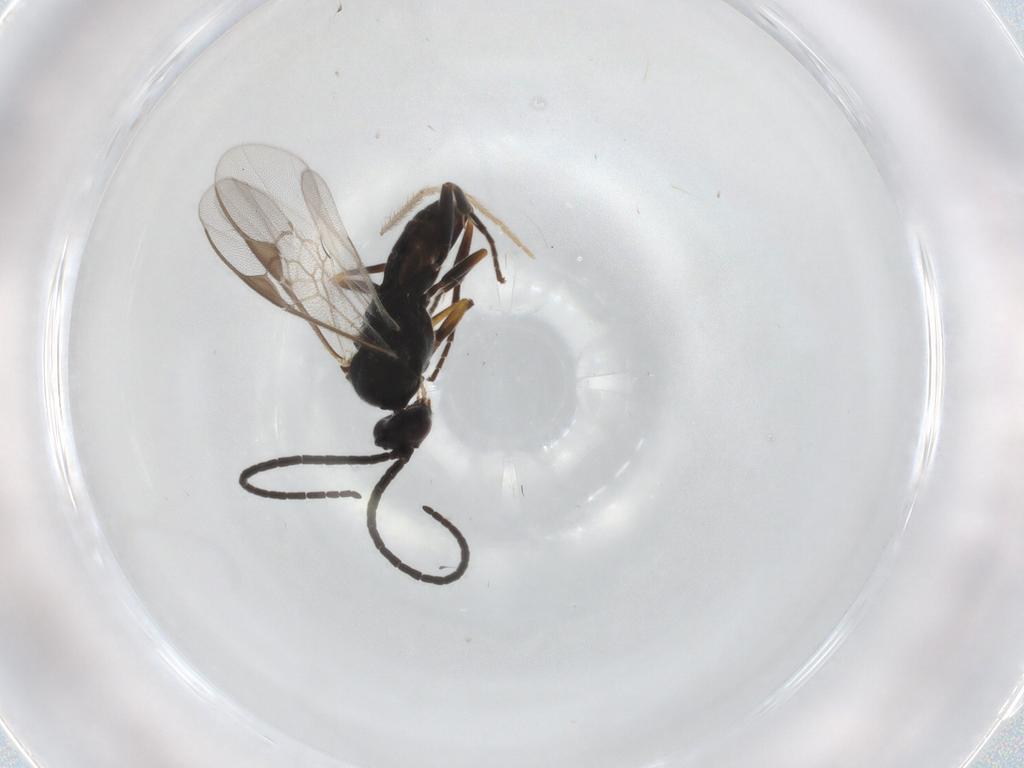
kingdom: Animalia
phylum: Arthropoda
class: Insecta
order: Hymenoptera
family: Braconidae
